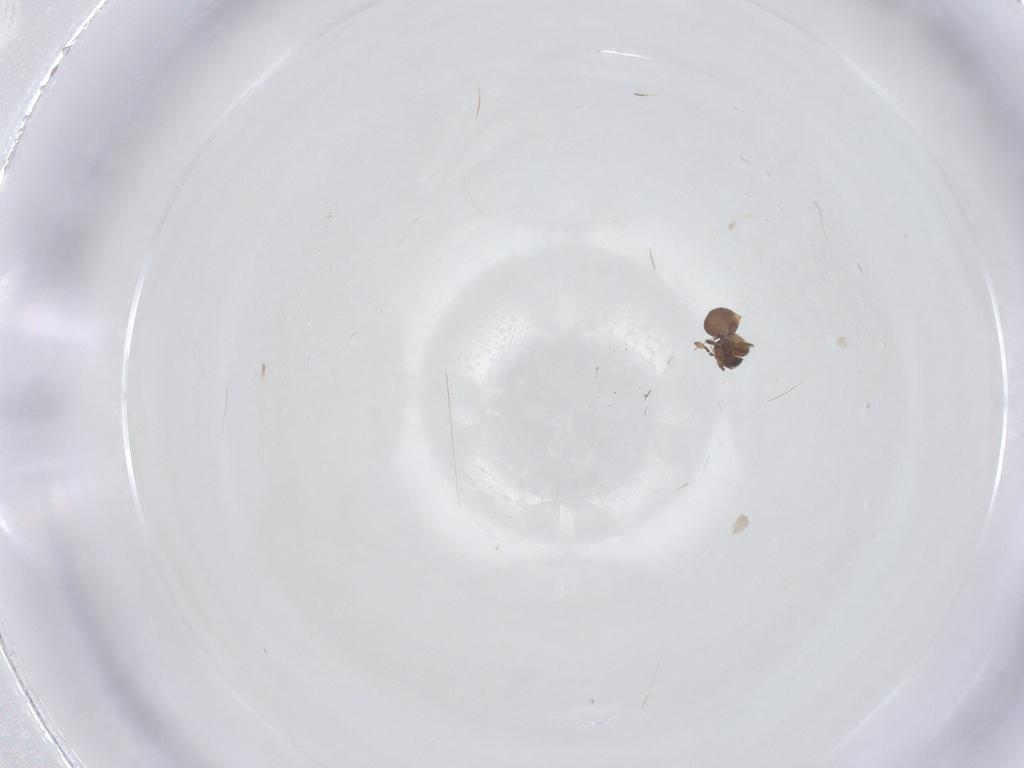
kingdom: Animalia
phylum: Arthropoda
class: Insecta
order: Hymenoptera
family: Scelionidae
